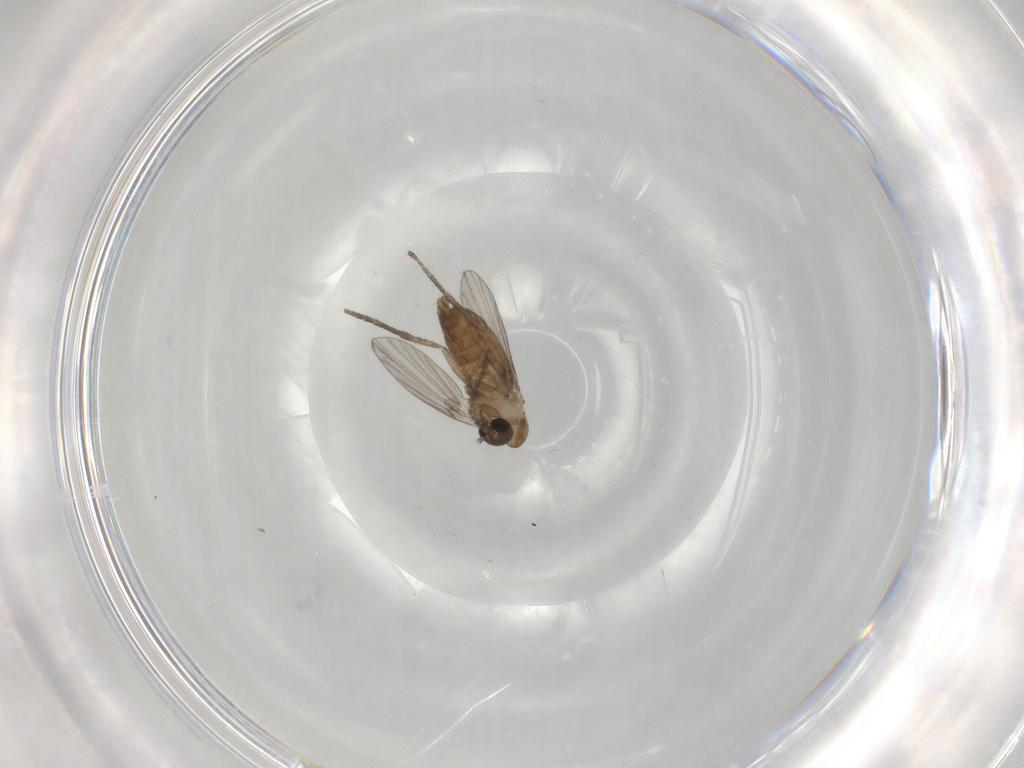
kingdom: Animalia
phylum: Arthropoda
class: Insecta
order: Diptera
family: Psychodidae
